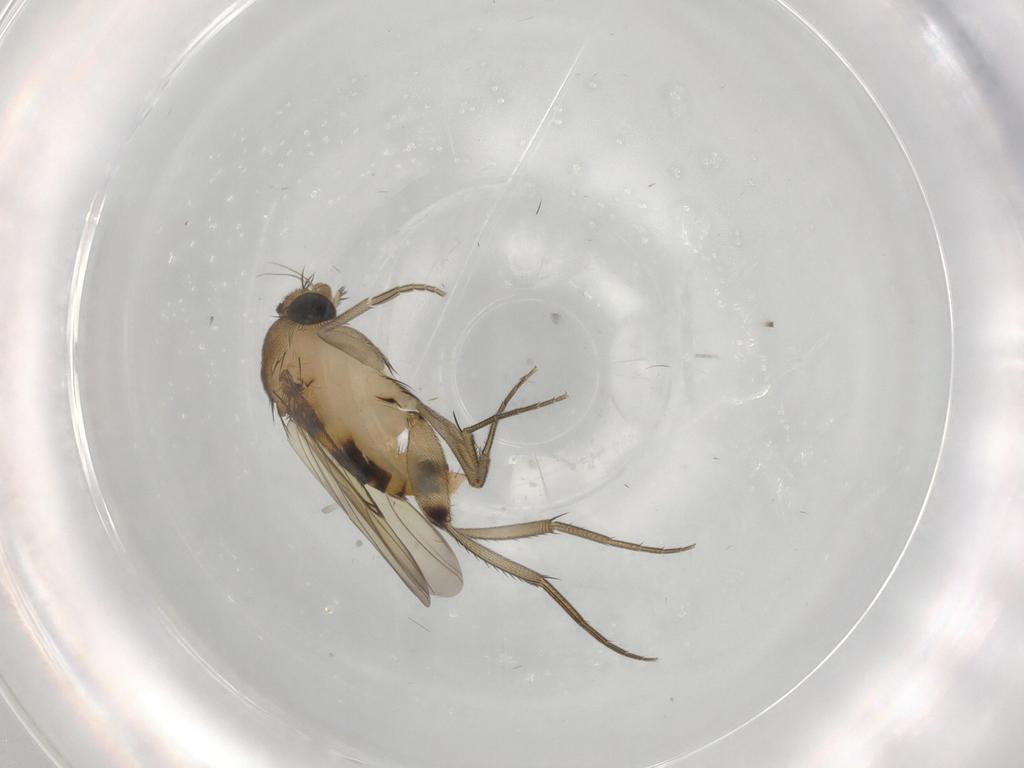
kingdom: Animalia
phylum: Arthropoda
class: Insecta
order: Diptera
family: Phoridae
